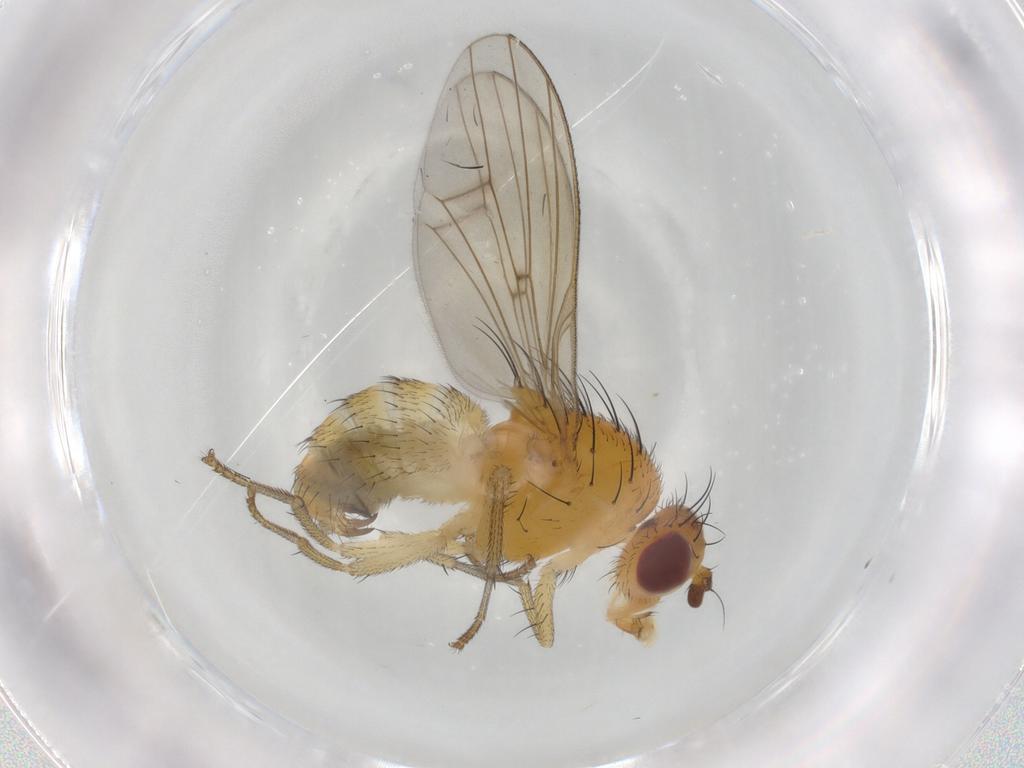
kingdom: Animalia
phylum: Arthropoda
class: Insecta
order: Diptera
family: Lauxaniidae
